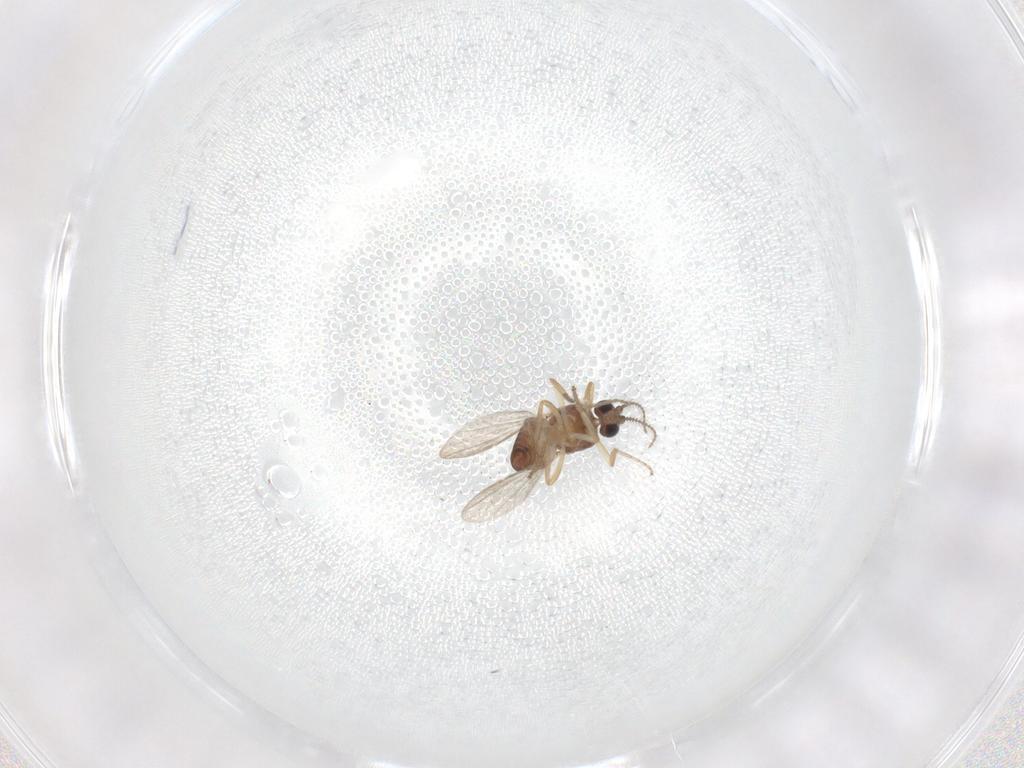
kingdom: Animalia
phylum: Arthropoda
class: Insecta
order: Diptera
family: Ceratopogonidae
